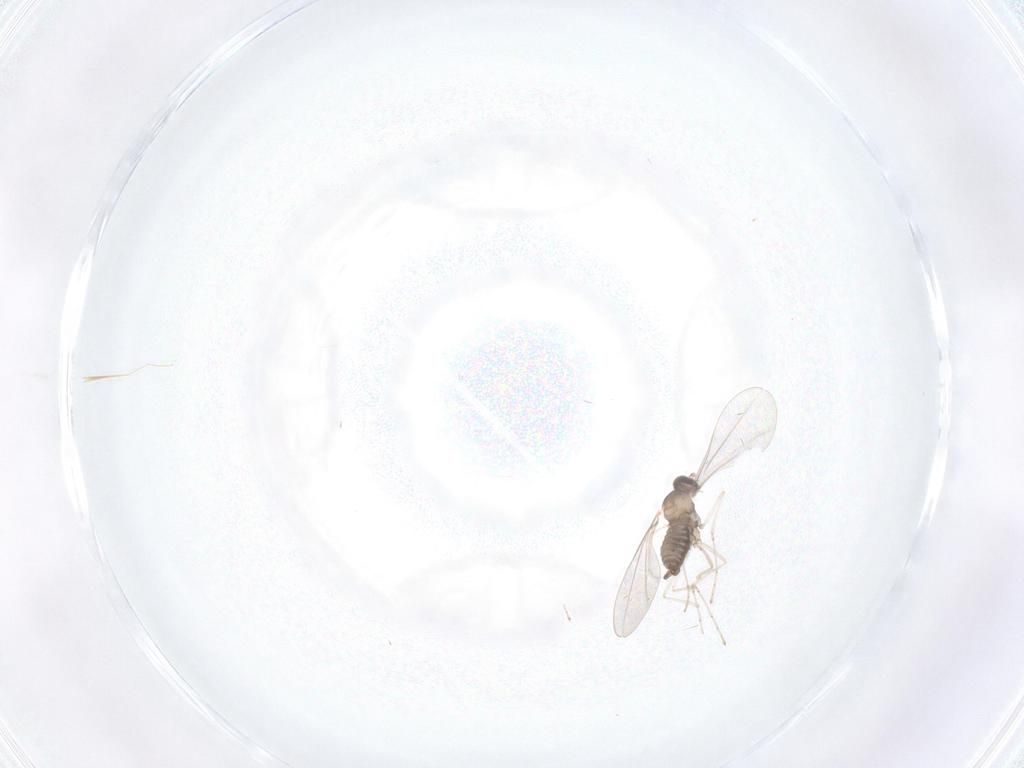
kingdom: Animalia
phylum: Arthropoda
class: Insecta
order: Diptera
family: Cecidomyiidae
